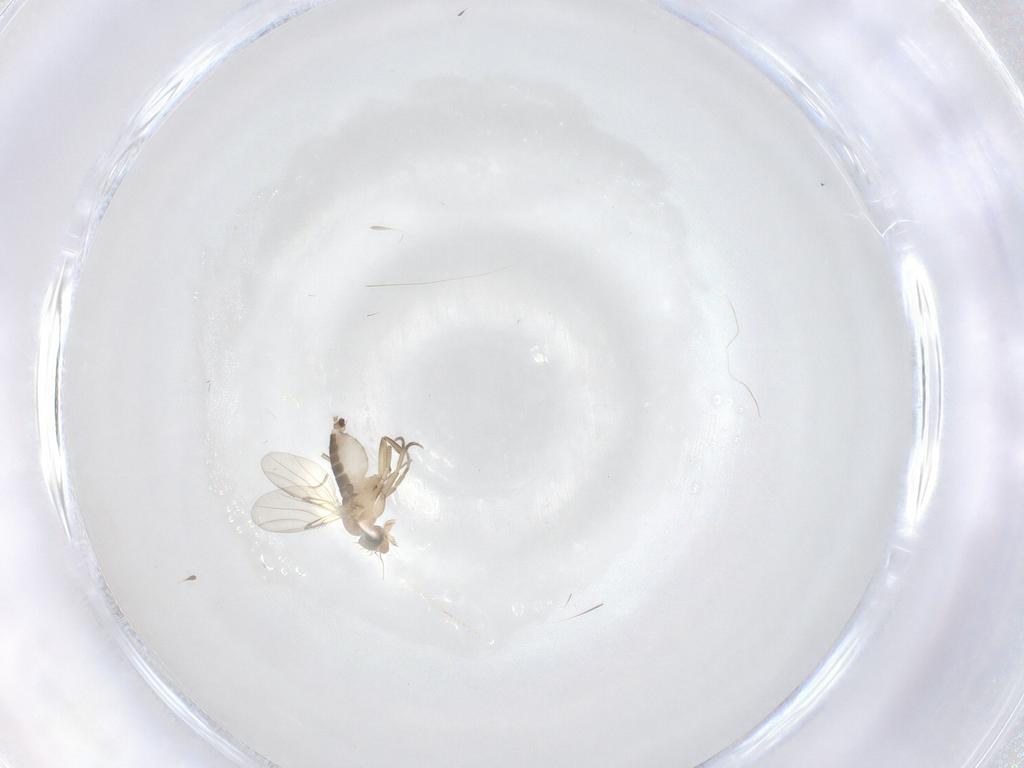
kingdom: Animalia
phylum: Arthropoda
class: Insecta
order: Diptera
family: Phoridae
